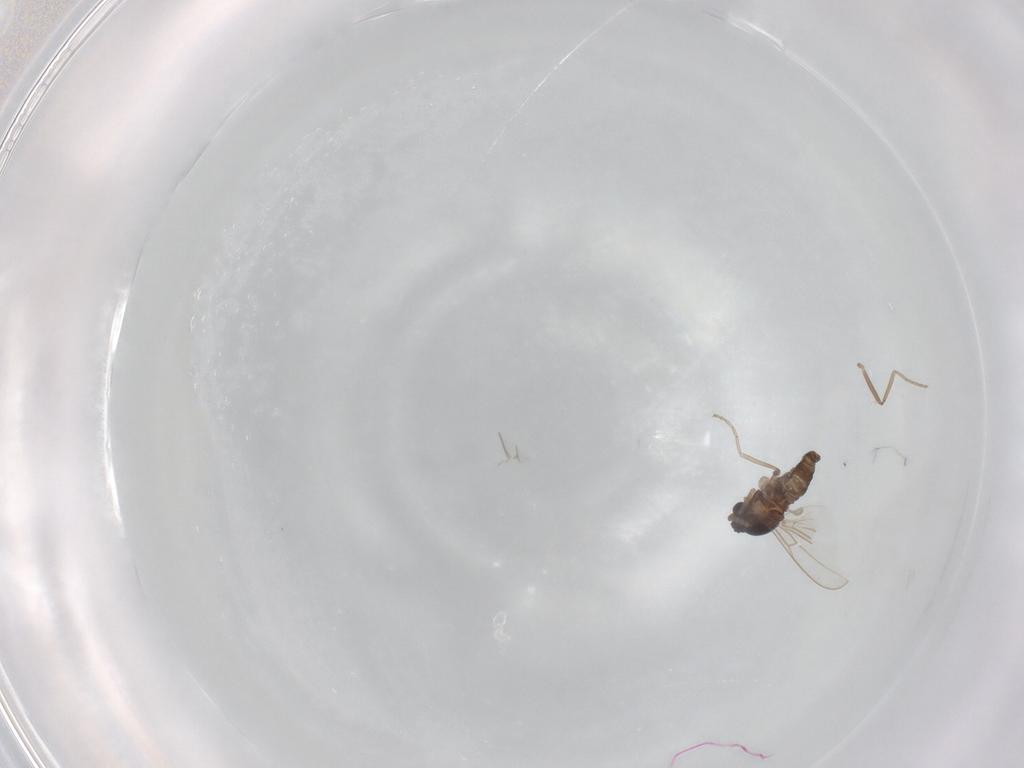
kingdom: Animalia
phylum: Arthropoda
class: Insecta
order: Diptera
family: Cecidomyiidae
